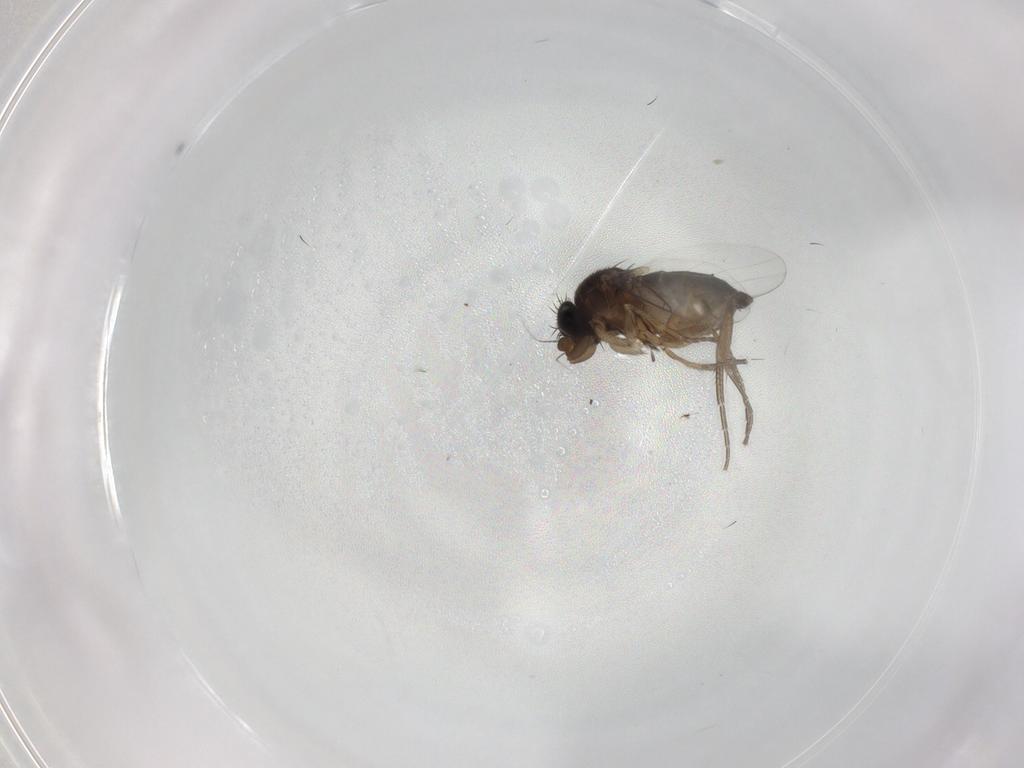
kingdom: Animalia
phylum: Arthropoda
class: Insecta
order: Diptera
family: Phoridae
